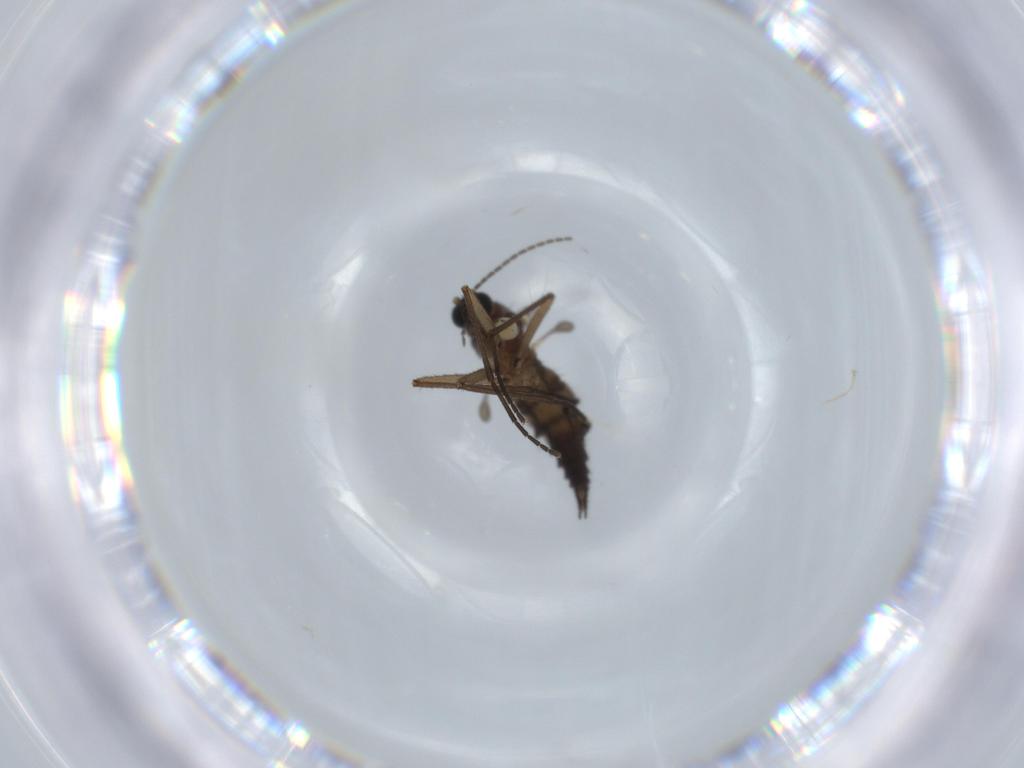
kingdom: Animalia
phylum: Arthropoda
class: Insecta
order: Diptera
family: Sciaridae
